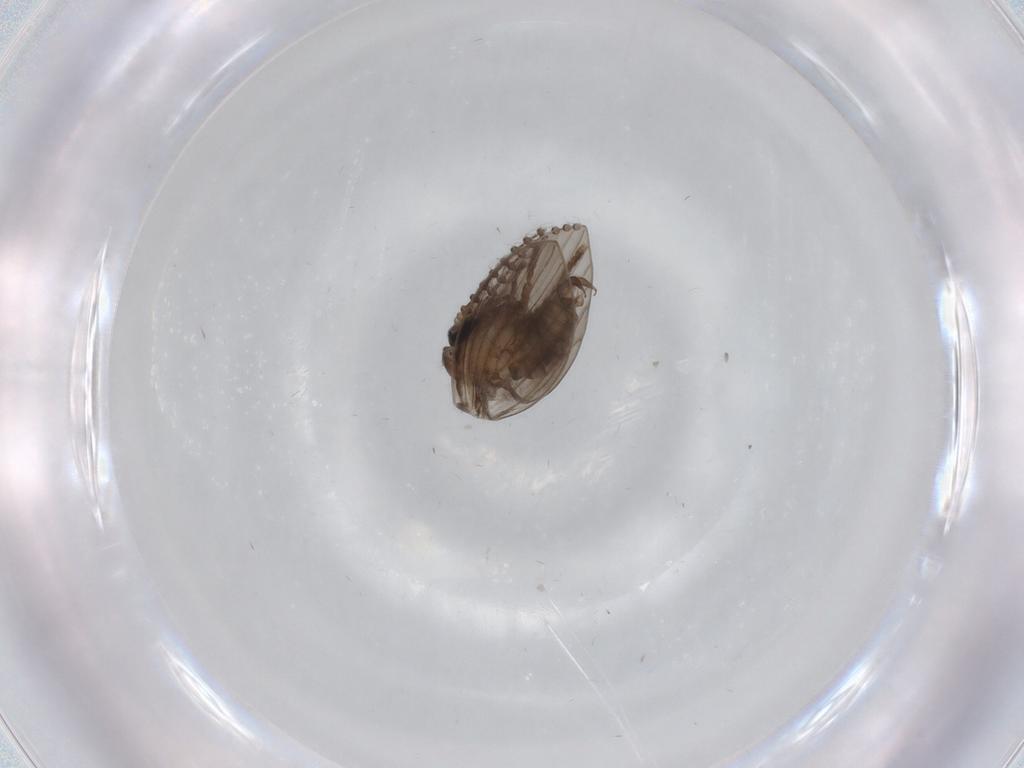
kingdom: Animalia
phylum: Arthropoda
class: Insecta
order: Diptera
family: Psychodidae
